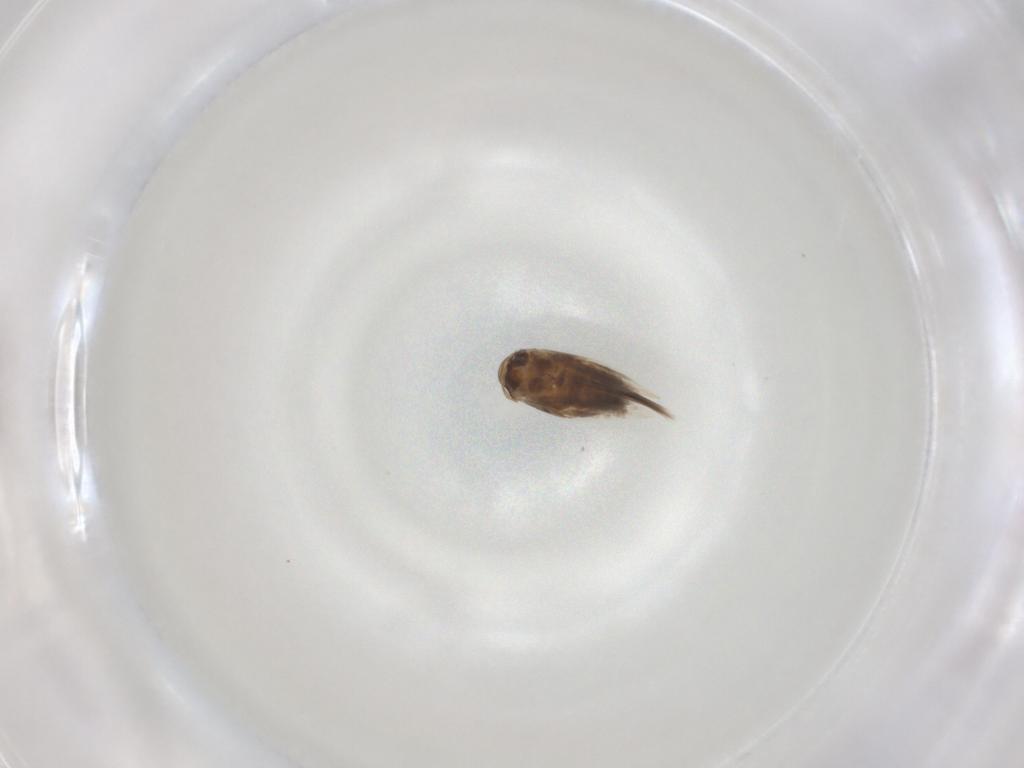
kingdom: Animalia
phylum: Arthropoda
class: Insecta
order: Lepidoptera
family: Nymphalidae
